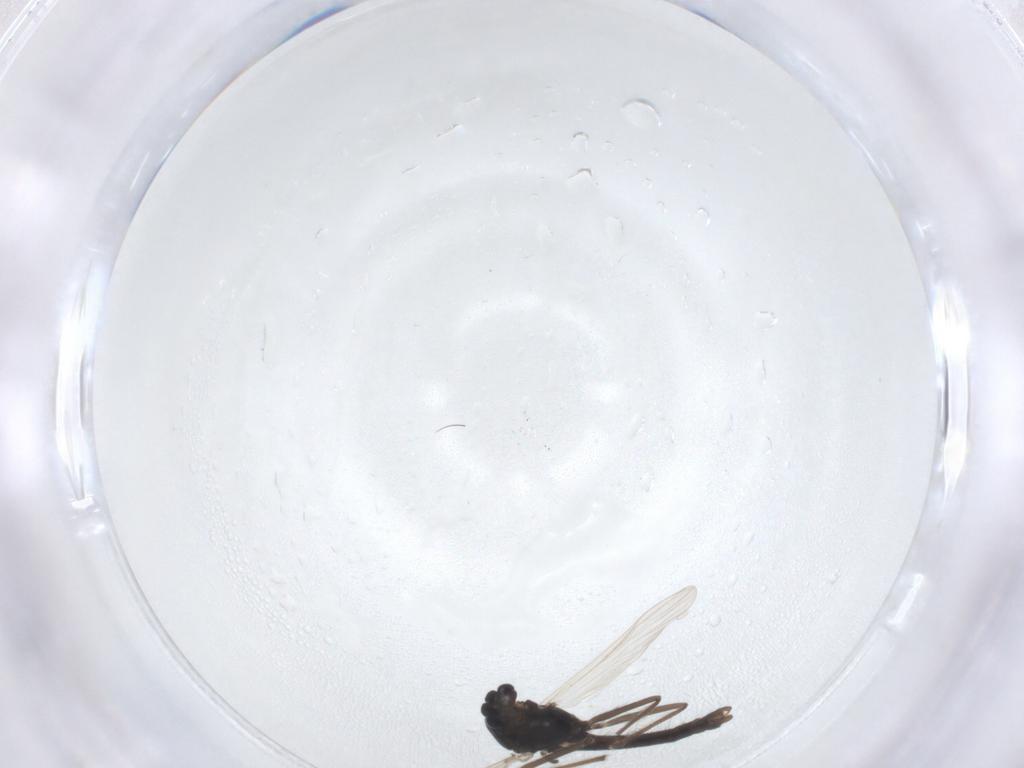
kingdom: Animalia
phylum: Arthropoda
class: Insecta
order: Diptera
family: Chironomidae
